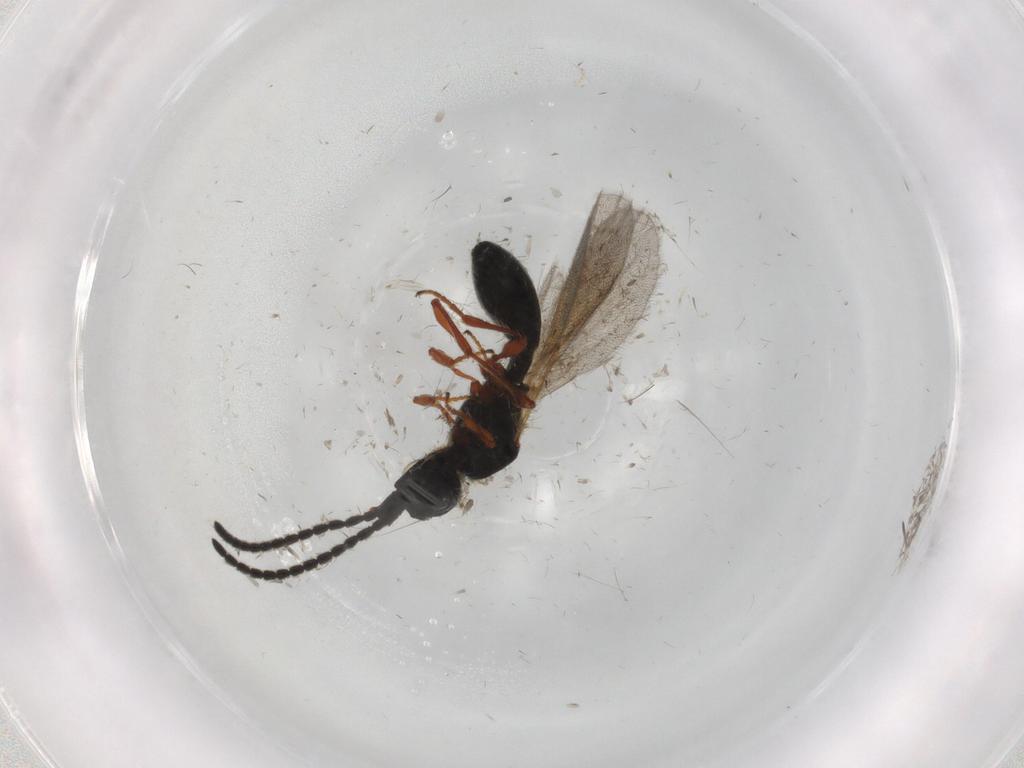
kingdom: Animalia
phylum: Arthropoda
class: Insecta
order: Hymenoptera
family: Diapriidae
